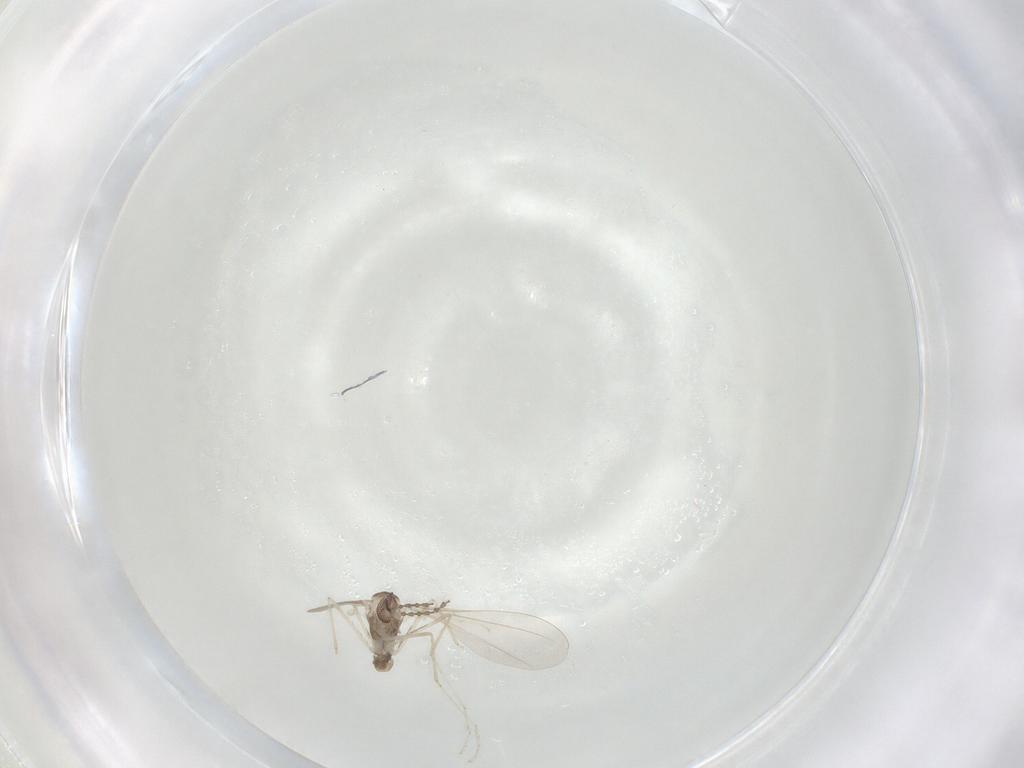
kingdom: Animalia
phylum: Arthropoda
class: Insecta
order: Diptera
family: Cecidomyiidae
